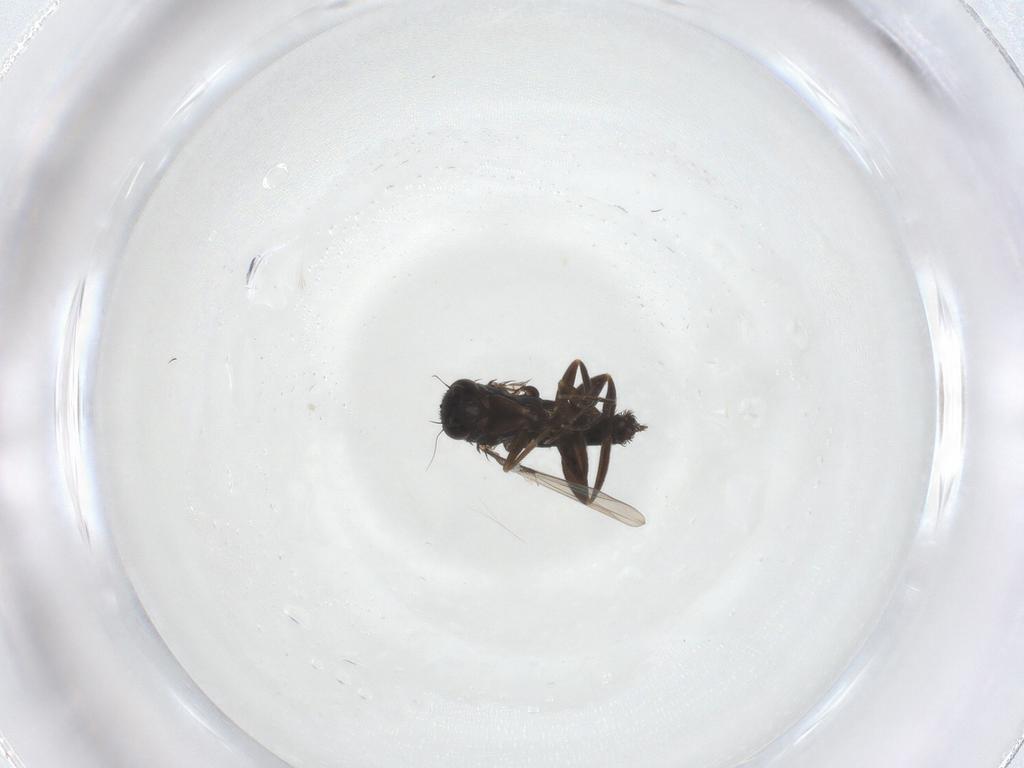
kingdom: Animalia
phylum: Arthropoda
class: Insecta
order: Diptera
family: Phoridae
